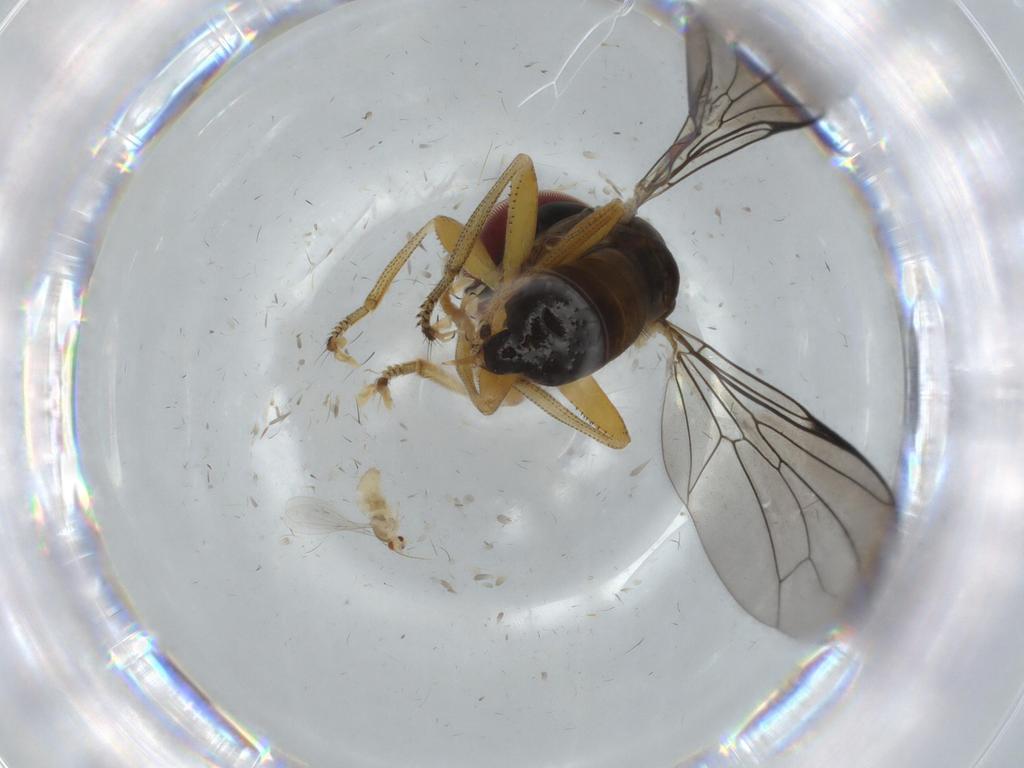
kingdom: Animalia
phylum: Arthropoda
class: Insecta
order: Diptera
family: Pipunculidae
